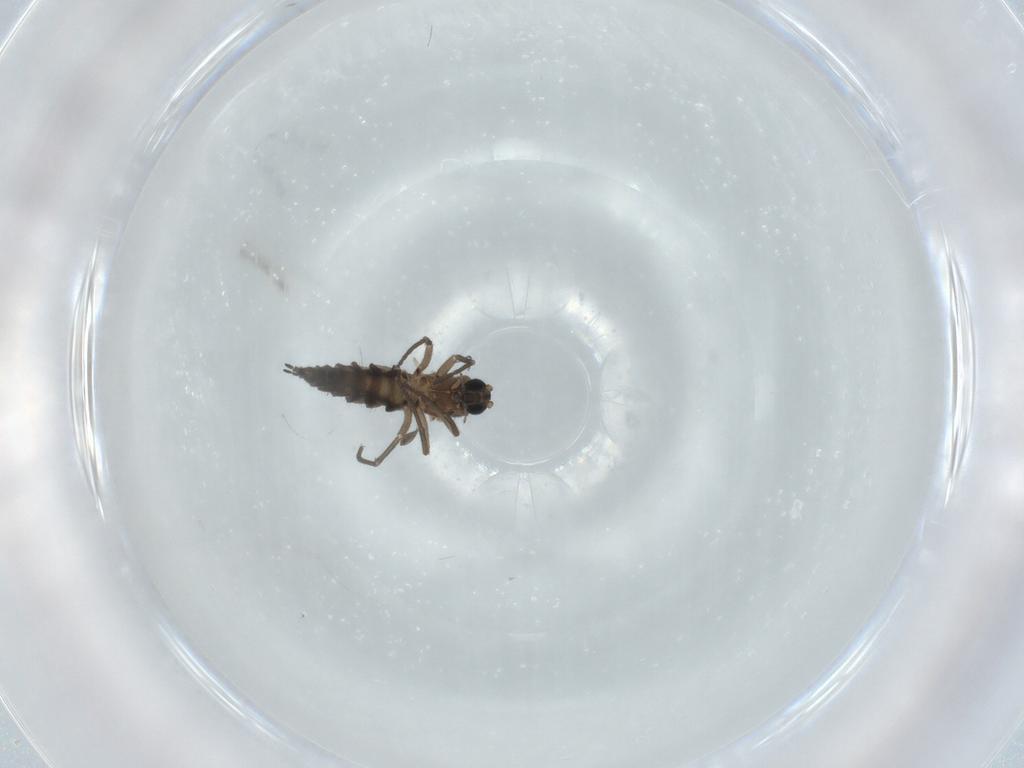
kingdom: Animalia
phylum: Arthropoda
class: Insecta
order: Diptera
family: Sciaridae
